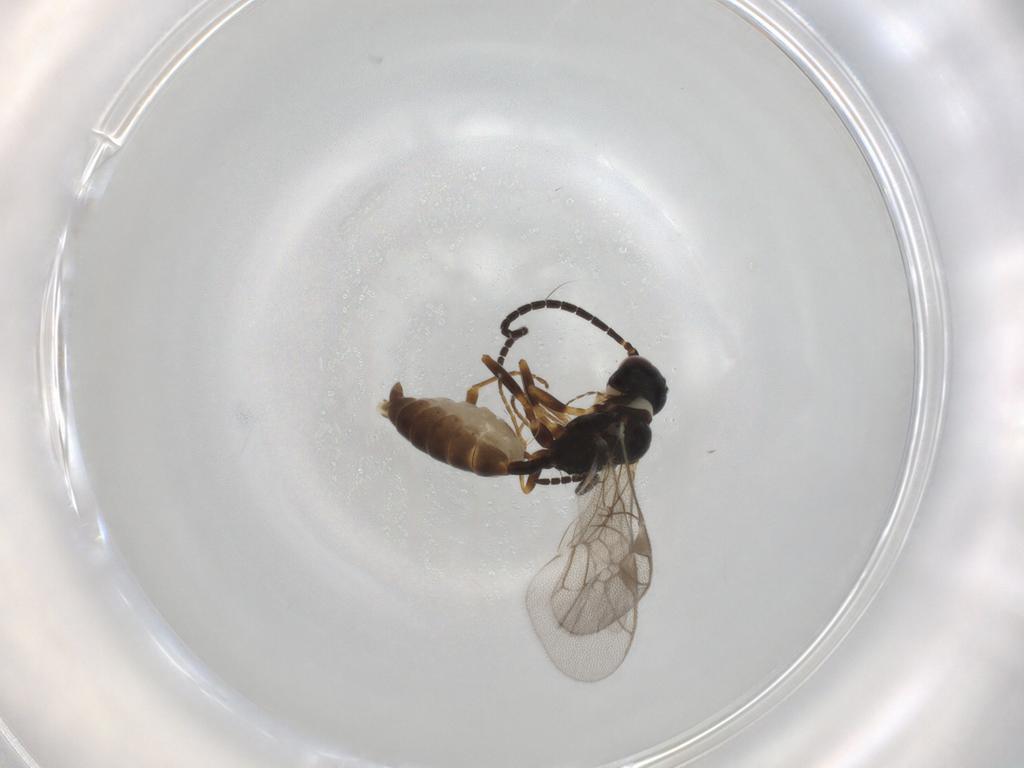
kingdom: Animalia
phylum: Arthropoda
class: Insecta
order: Hymenoptera
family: Ichneumonidae
